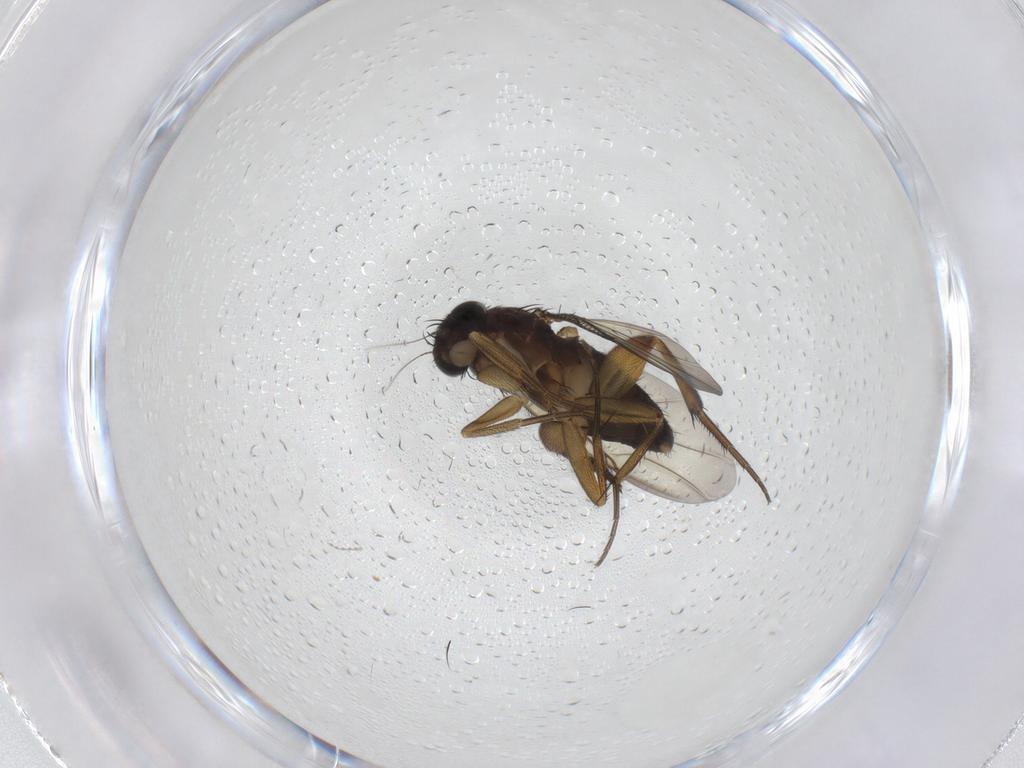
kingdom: Animalia
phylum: Arthropoda
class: Insecta
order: Diptera
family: Phoridae
